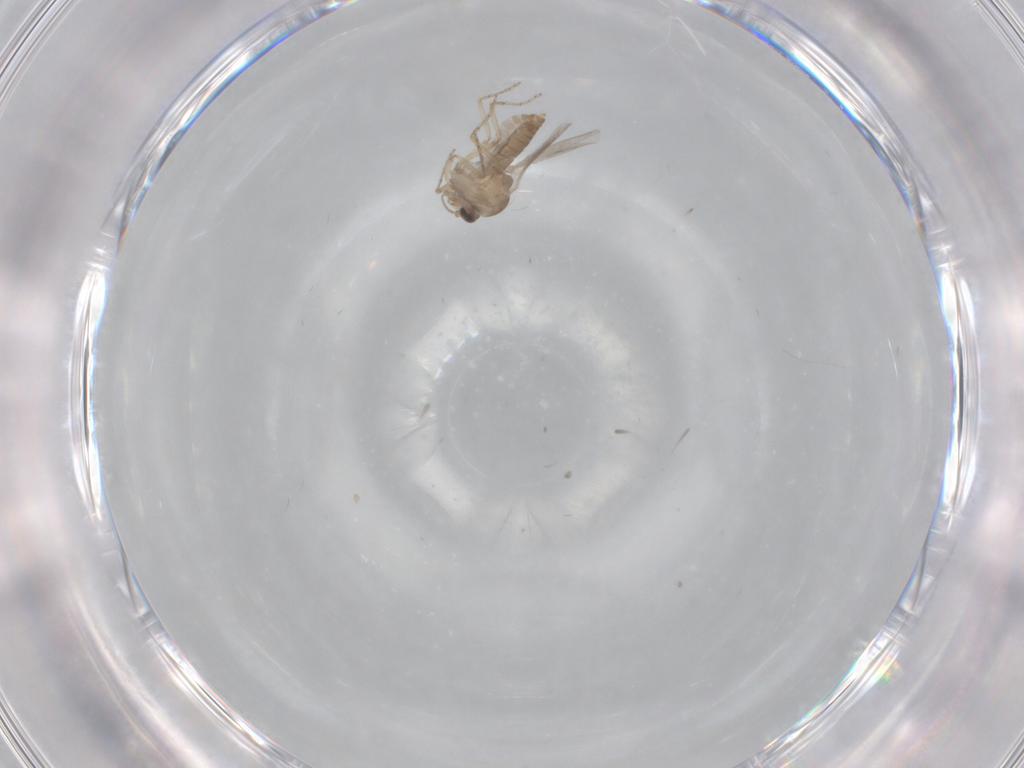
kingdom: Animalia
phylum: Arthropoda
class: Insecta
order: Diptera
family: Ceratopogonidae
